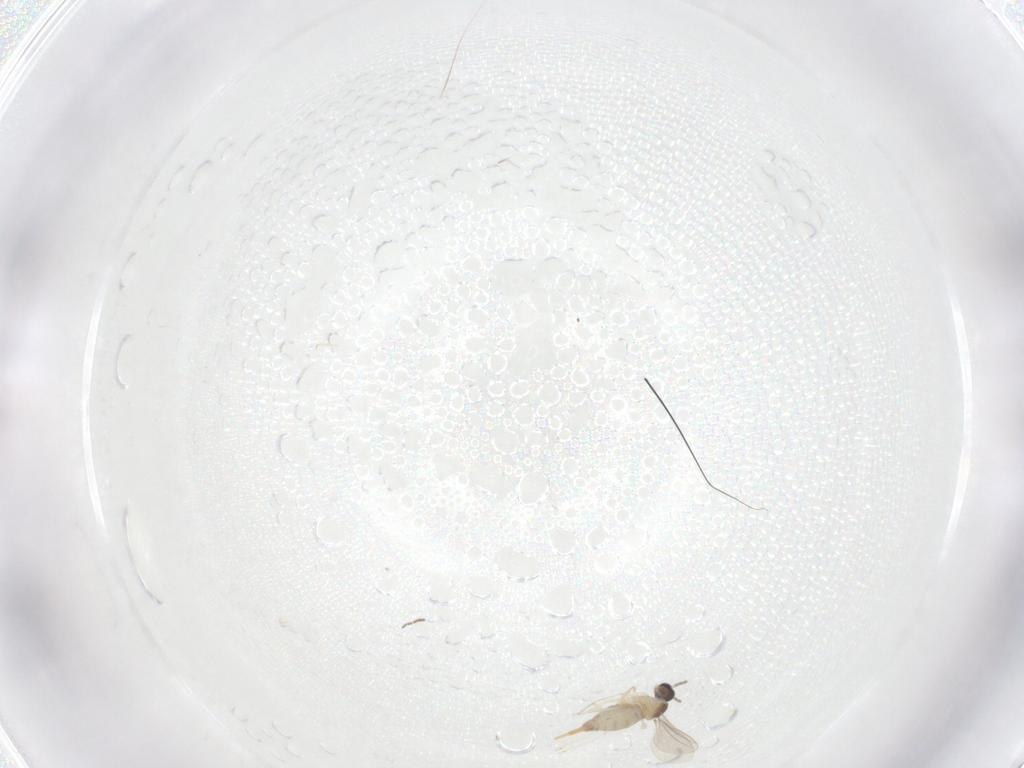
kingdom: Animalia
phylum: Arthropoda
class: Insecta
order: Diptera
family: Cecidomyiidae
